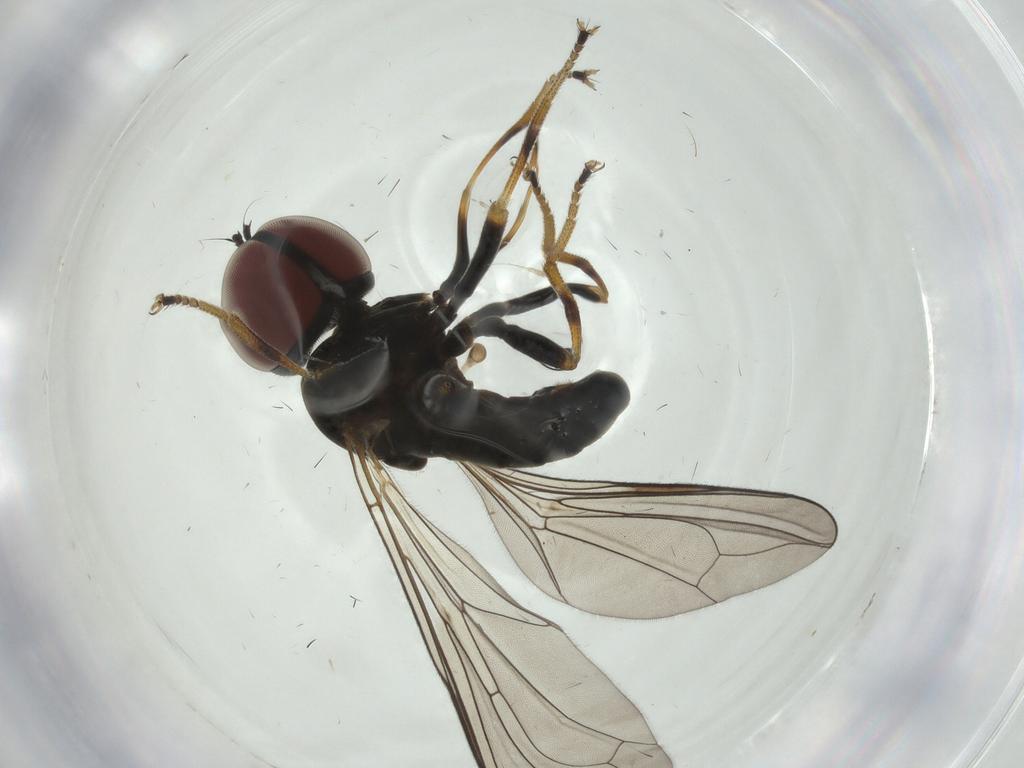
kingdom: Animalia
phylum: Arthropoda
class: Insecta
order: Diptera
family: Pipunculidae
